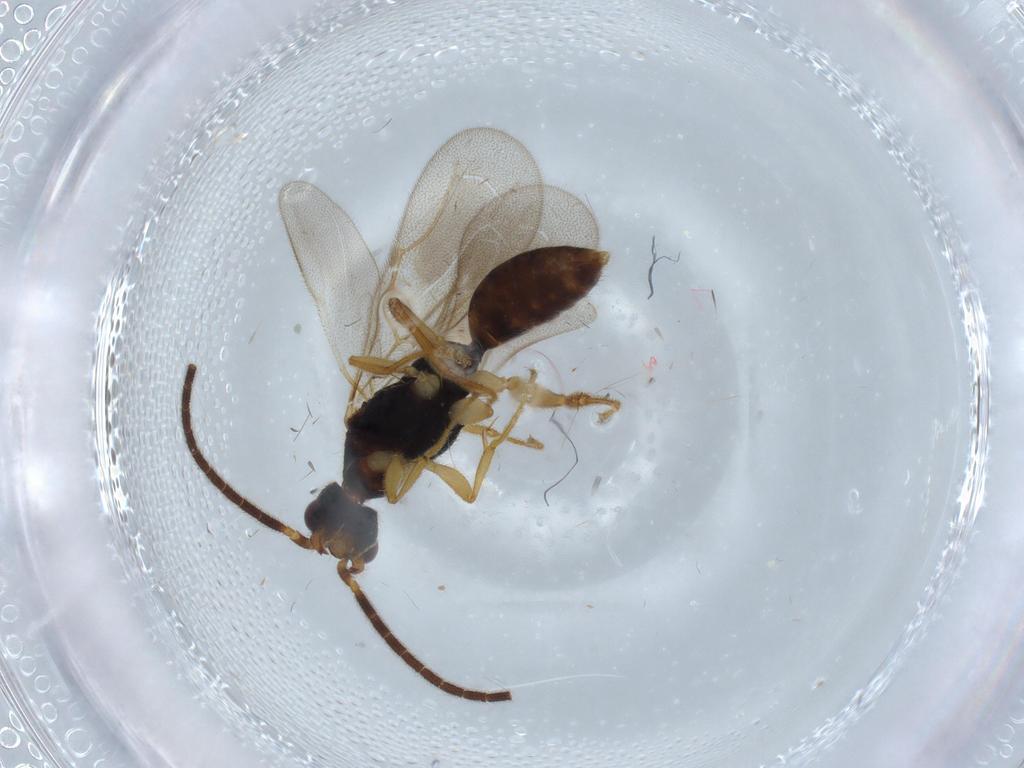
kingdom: Animalia
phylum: Arthropoda
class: Insecta
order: Hymenoptera
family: Bethylidae
